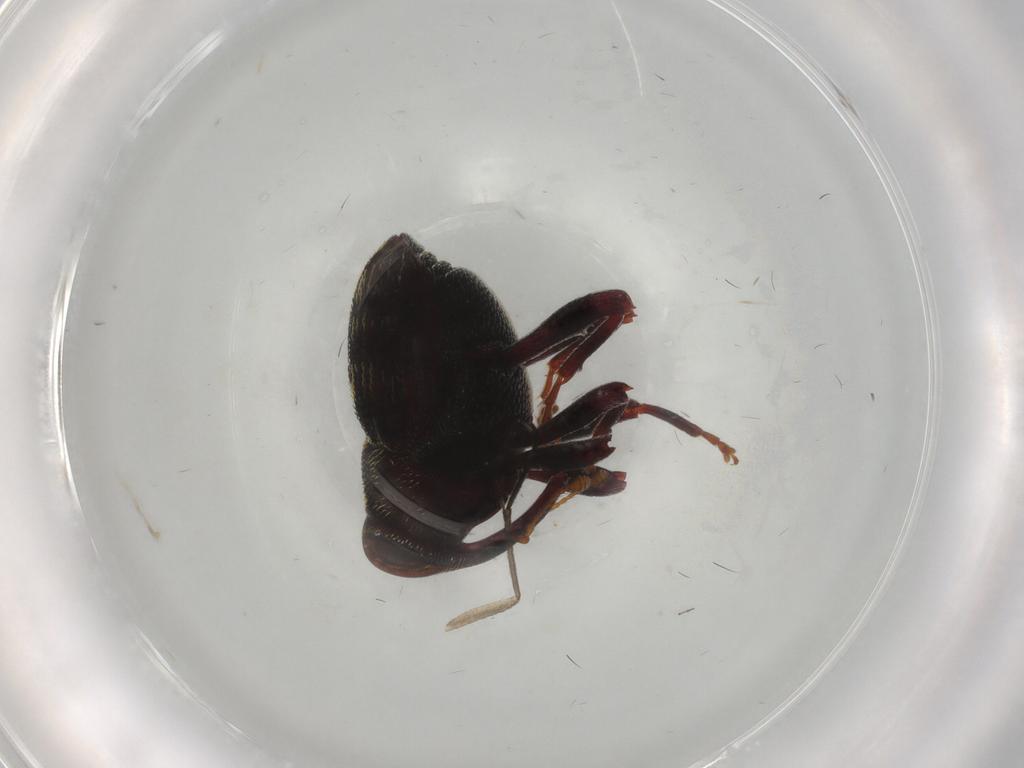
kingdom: Animalia
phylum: Arthropoda
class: Insecta
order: Coleoptera
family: Curculionidae
